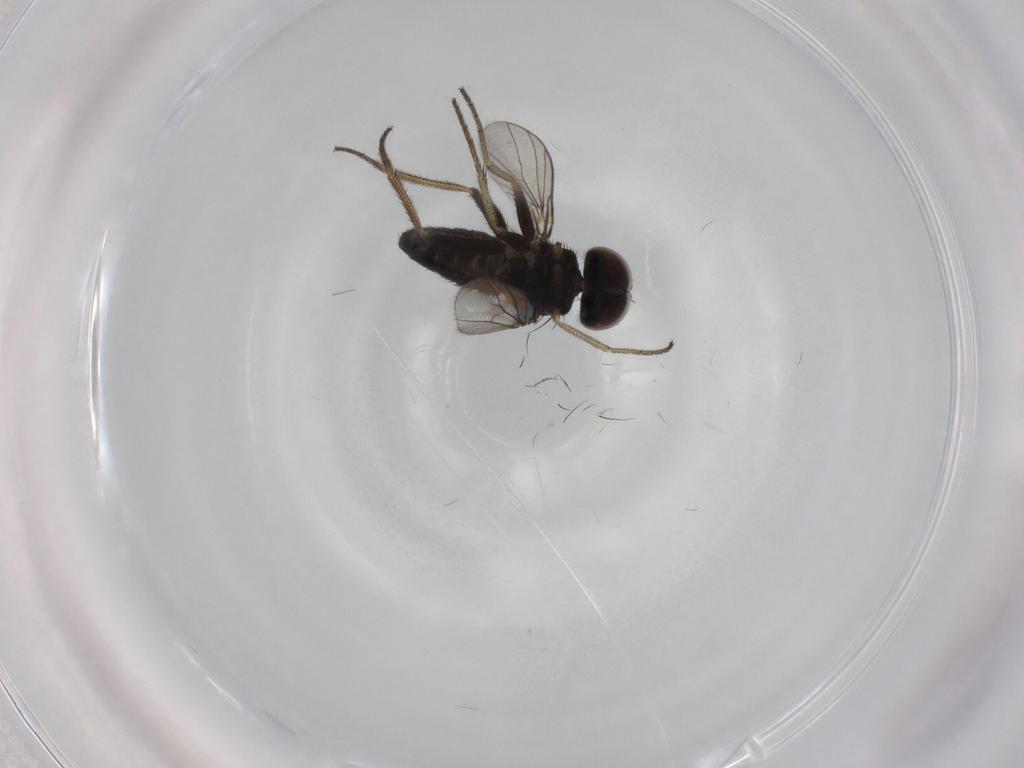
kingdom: Animalia
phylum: Arthropoda
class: Insecta
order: Diptera
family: Dolichopodidae
